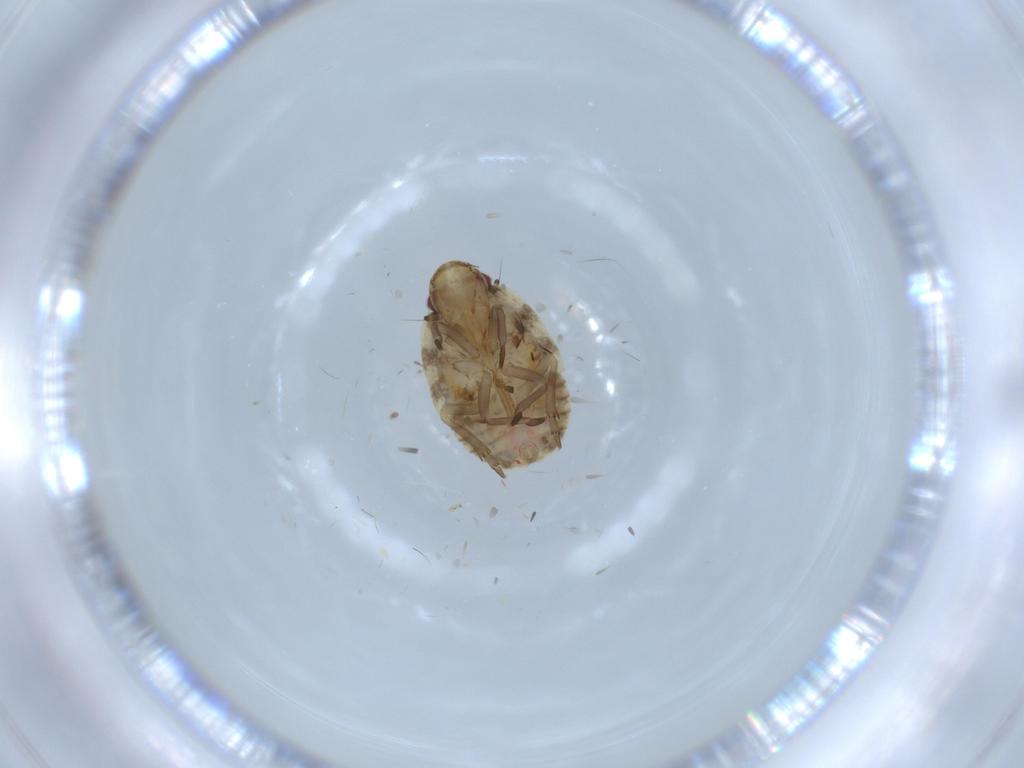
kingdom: Animalia
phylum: Arthropoda
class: Insecta
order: Hemiptera
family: Flatidae
